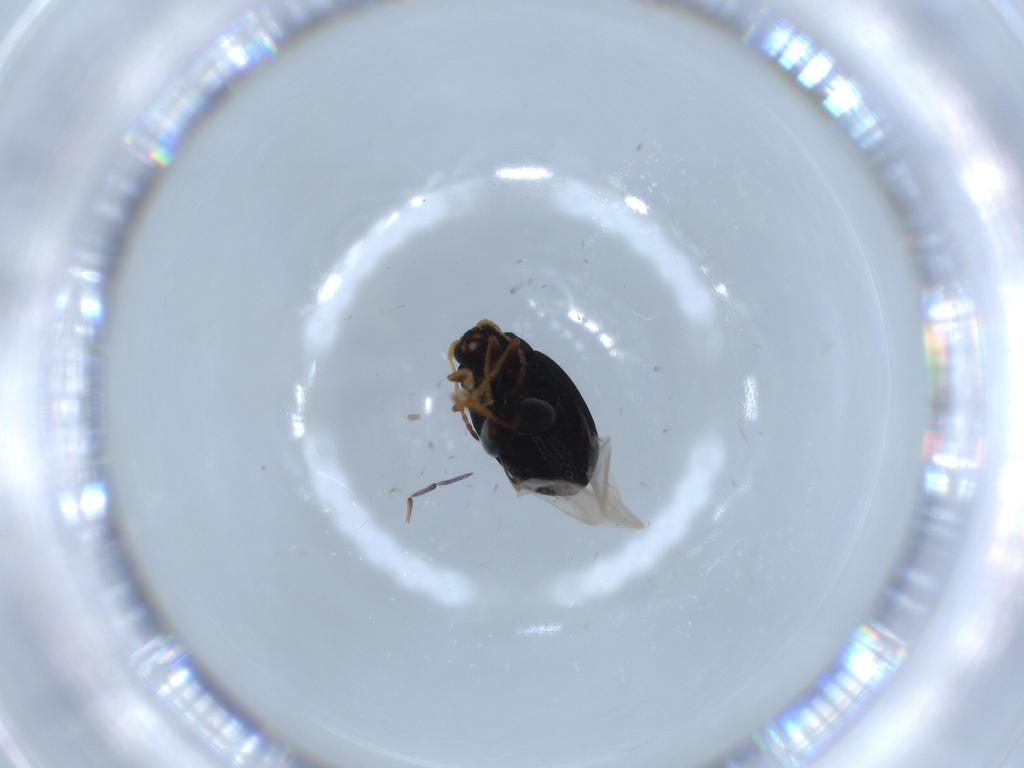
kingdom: Animalia
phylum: Arthropoda
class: Insecta
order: Coleoptera
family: Chrysomelidae
